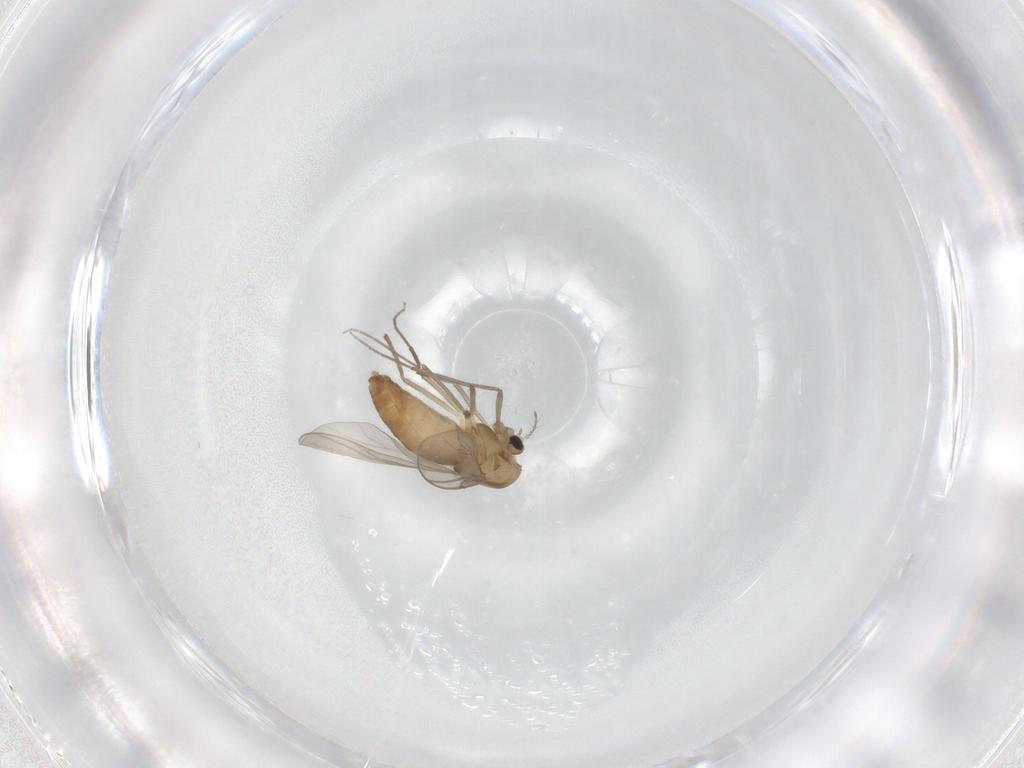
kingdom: Animalia
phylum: Arthropoda
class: Insecta
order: Diptera
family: Chironomidae
